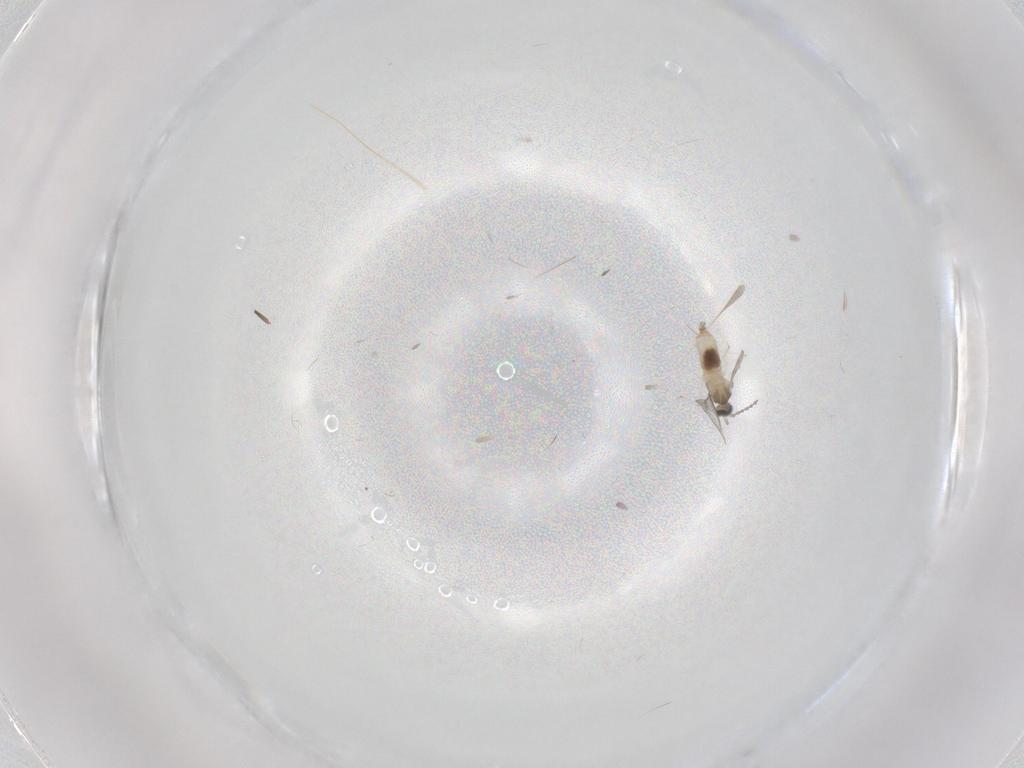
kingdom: Animalia
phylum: Arthropoda
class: Insecta
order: Diptera
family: Cecidomyiidae
